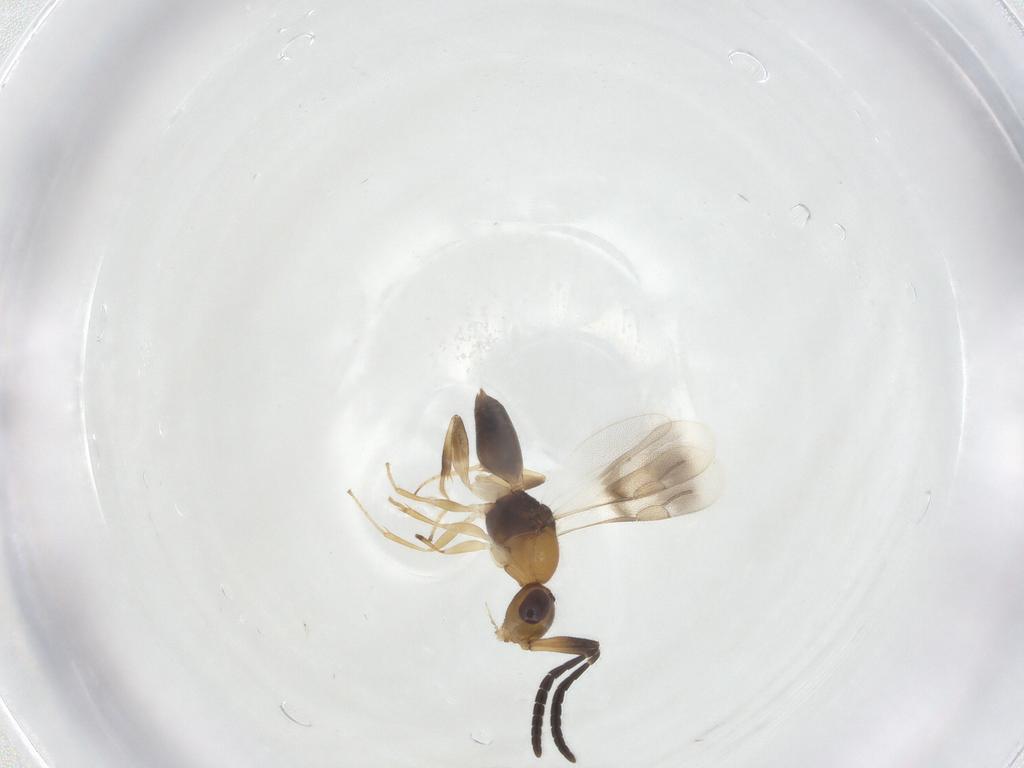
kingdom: Animalia
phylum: Arthropoda
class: Insecta
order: Hymenoptera
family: Megaspilidae
